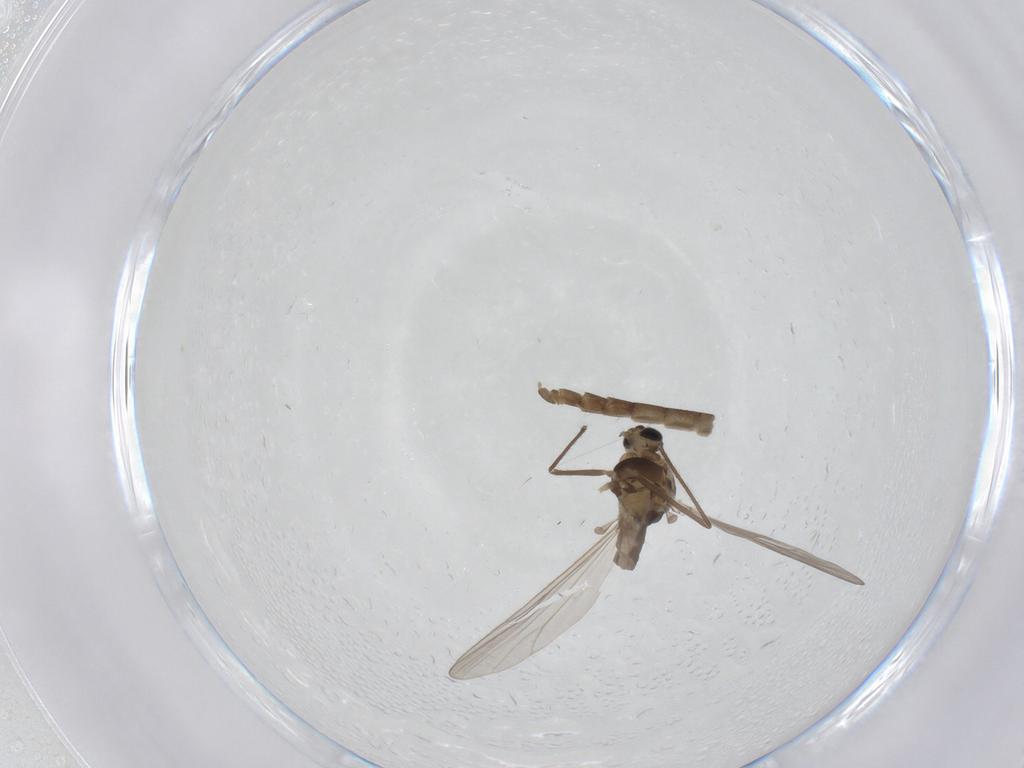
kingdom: Animalia
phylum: Arthropoda
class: Insecta
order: Diptera
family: Chironomidae
